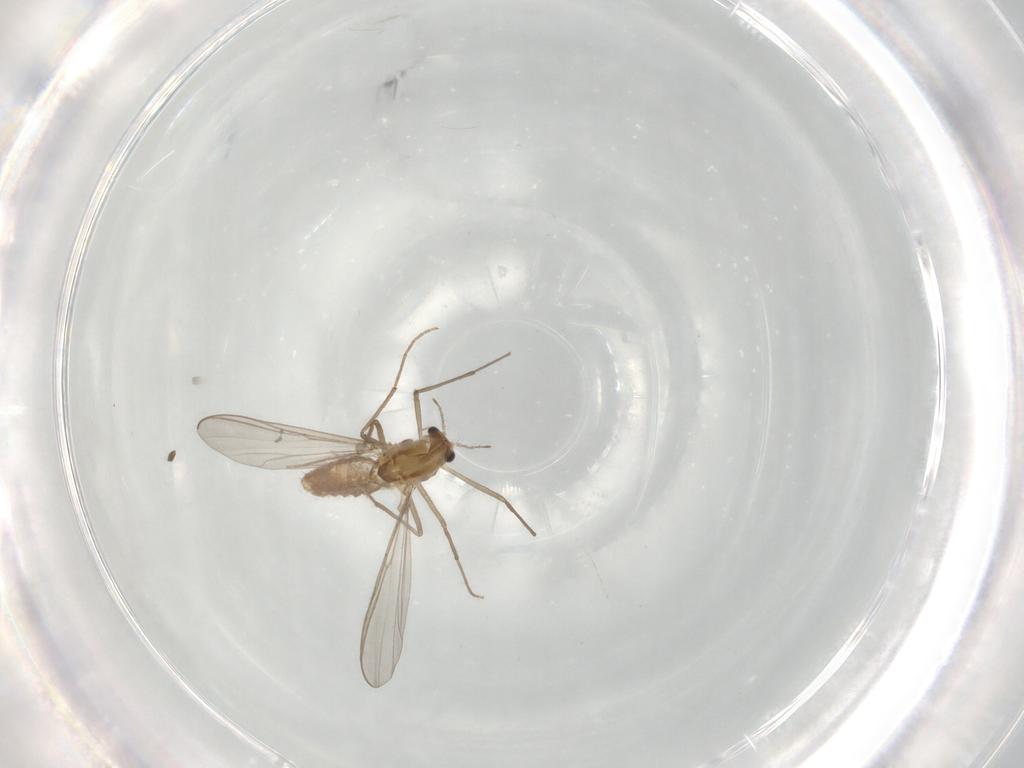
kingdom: Animalia
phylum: Arthropoda
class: Insecta
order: Diptera
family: Chironomidae
